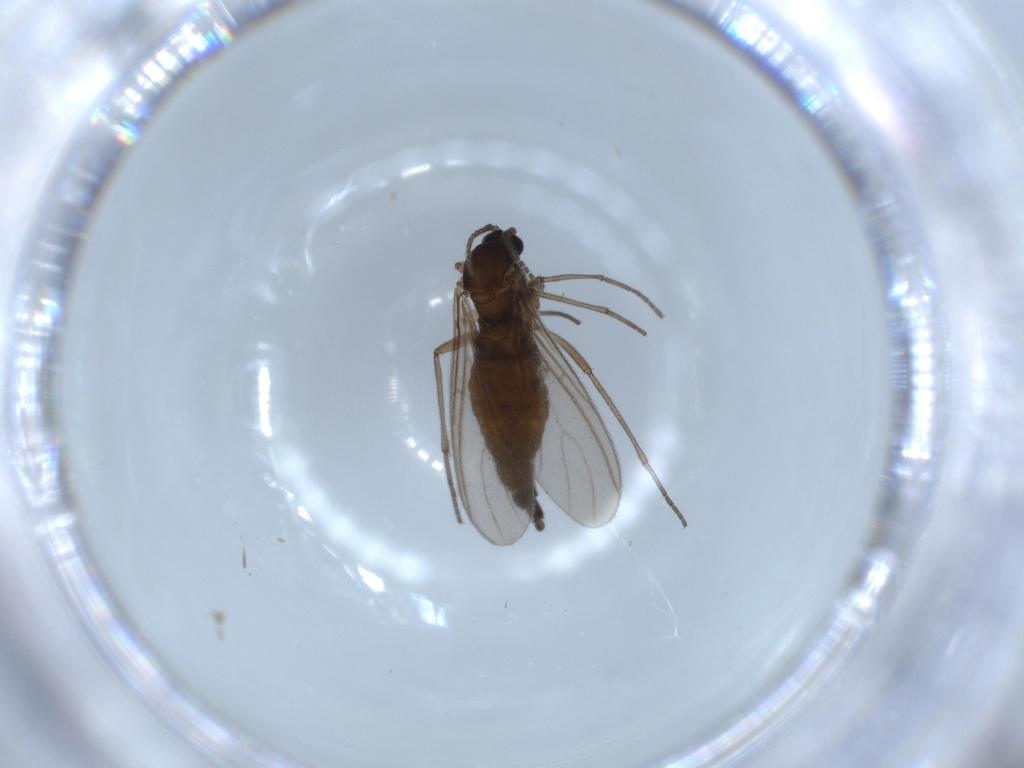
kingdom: Animalia
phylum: Arthropoda
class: Insecta
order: Diptera
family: Sciaridae
